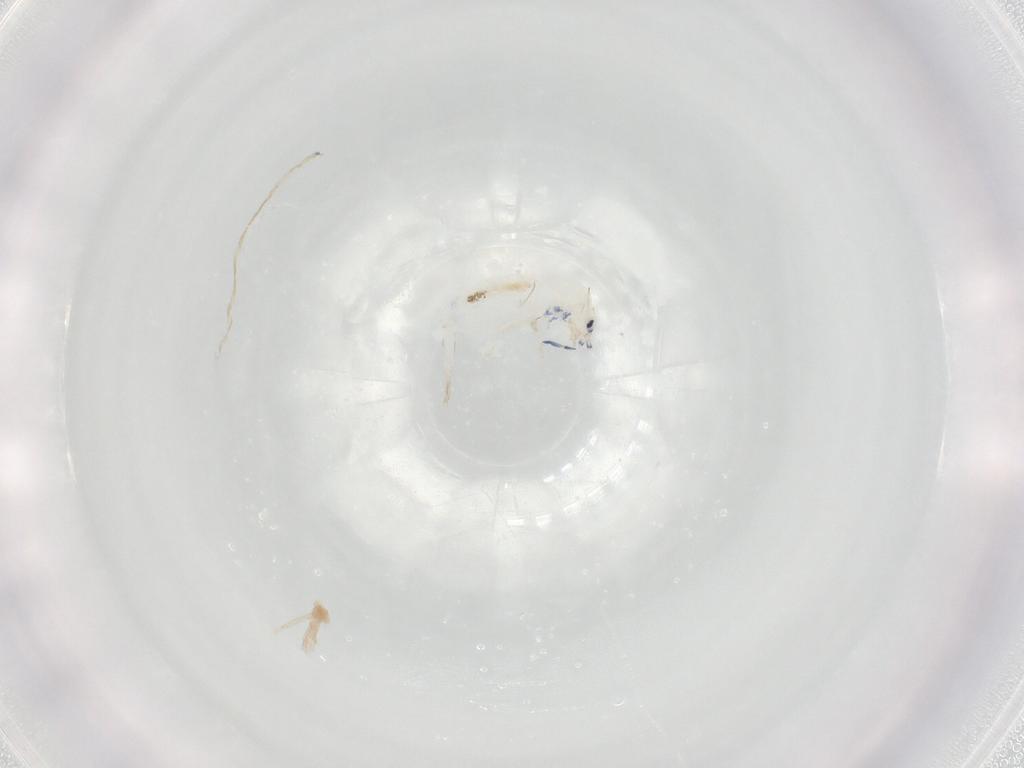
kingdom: Animalia
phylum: Arthropoda
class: Collembola
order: Entomobryomorpha
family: Entomobryidae
